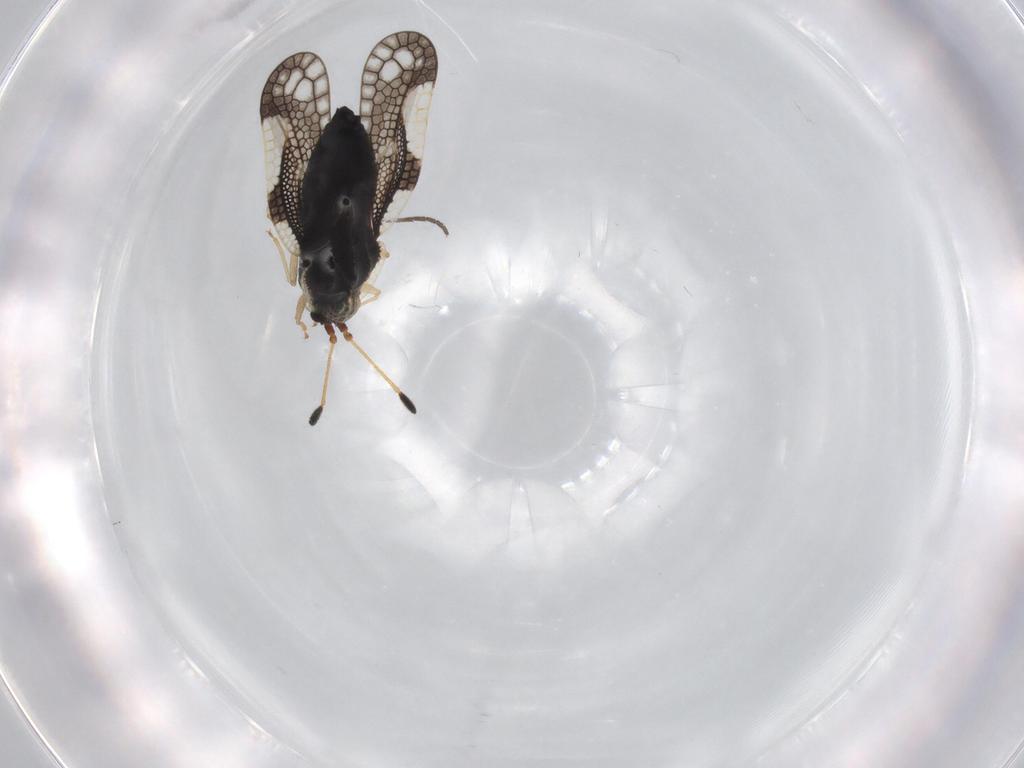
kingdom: Animalia
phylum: Arthropoda
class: Insecta
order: Hemiptera
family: Tingidae
